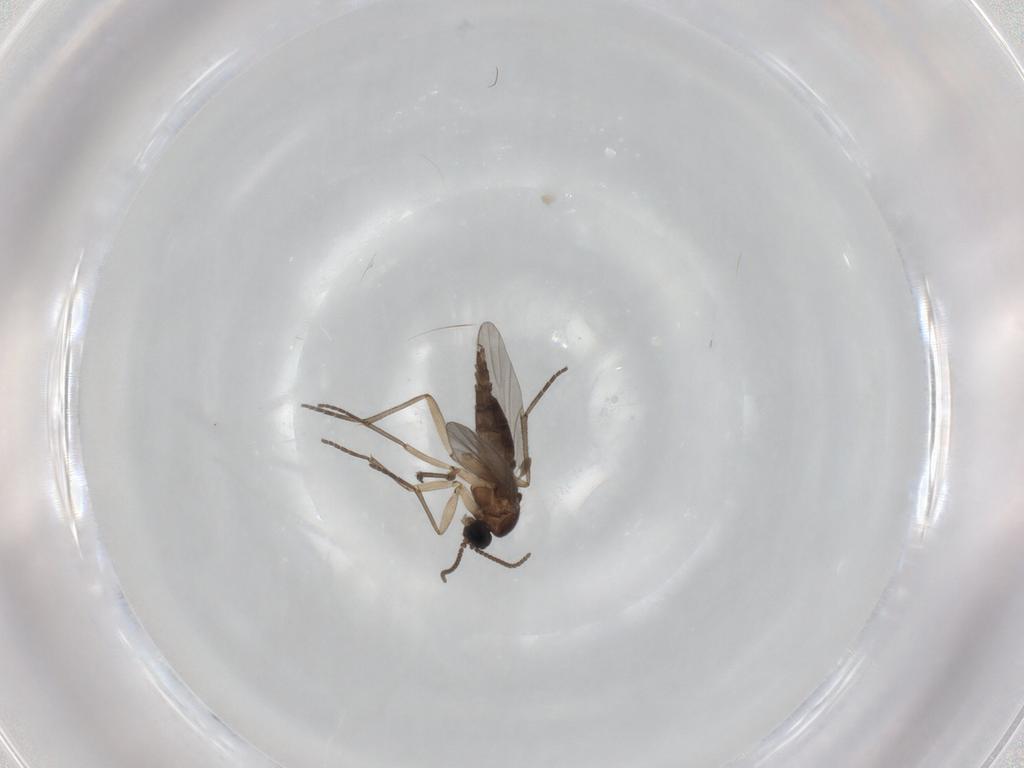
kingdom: Animalia
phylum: Arthropoda
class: Insecta
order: Diptera
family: Sciaridae
